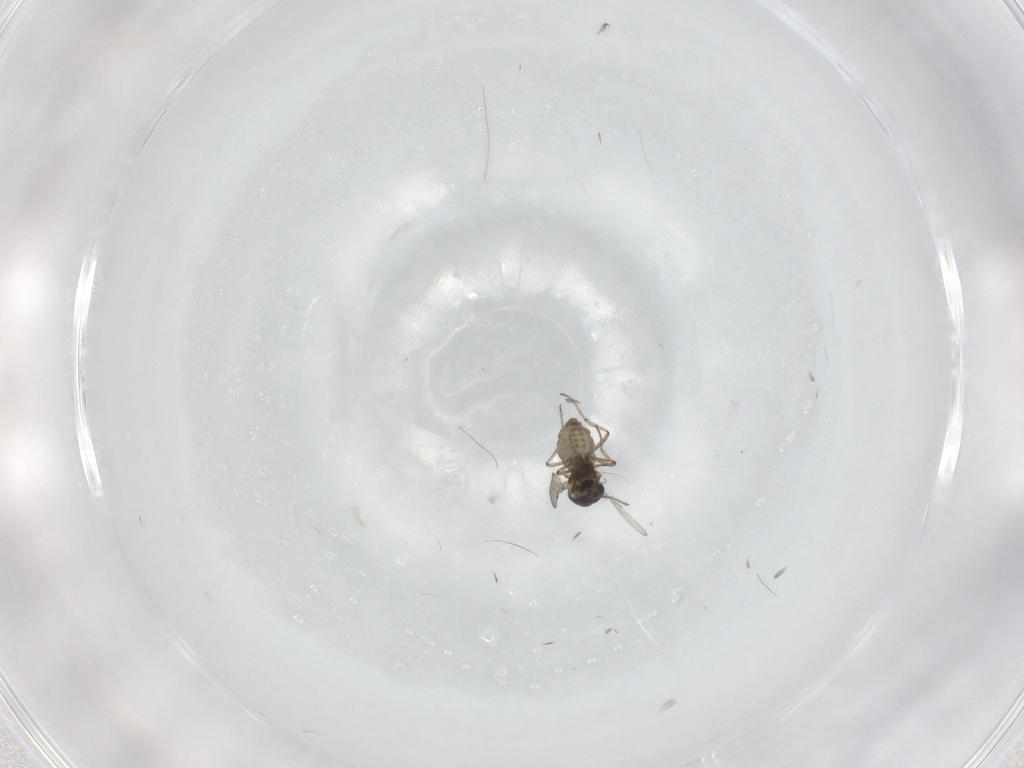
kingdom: Animalia
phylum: Arthropoda
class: Insecta
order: Diptera
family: Ceratopogonidae
